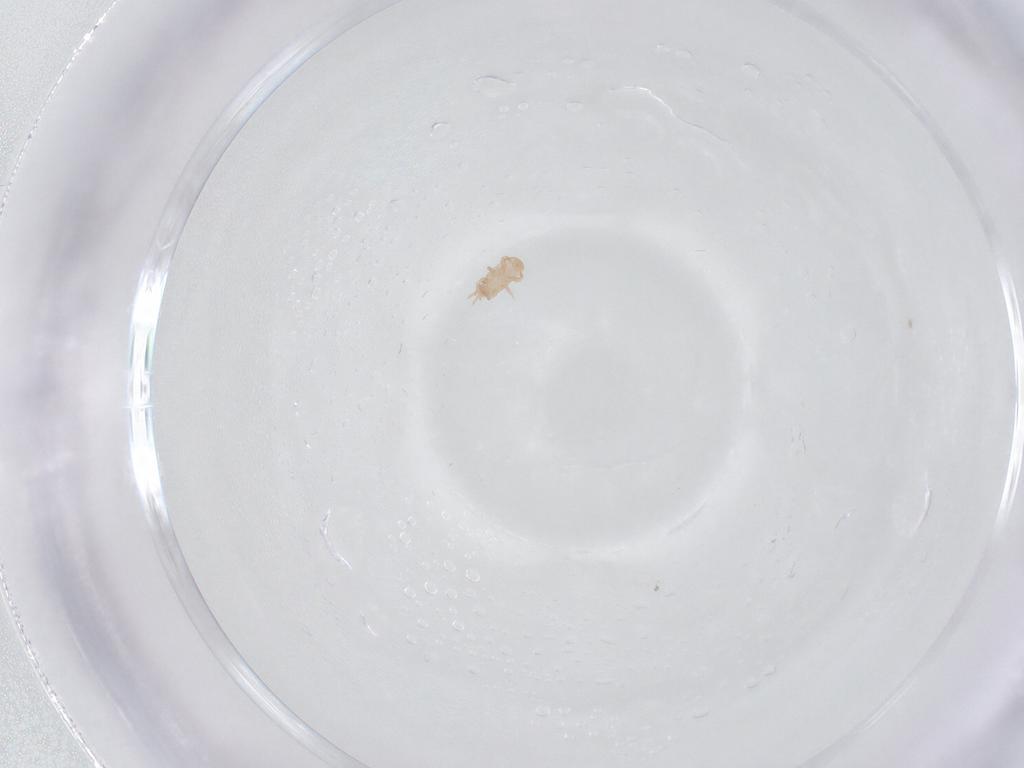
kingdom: Animalia
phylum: Arthropoda
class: Arachnida
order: Mesostigmata
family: Digamasellidae
